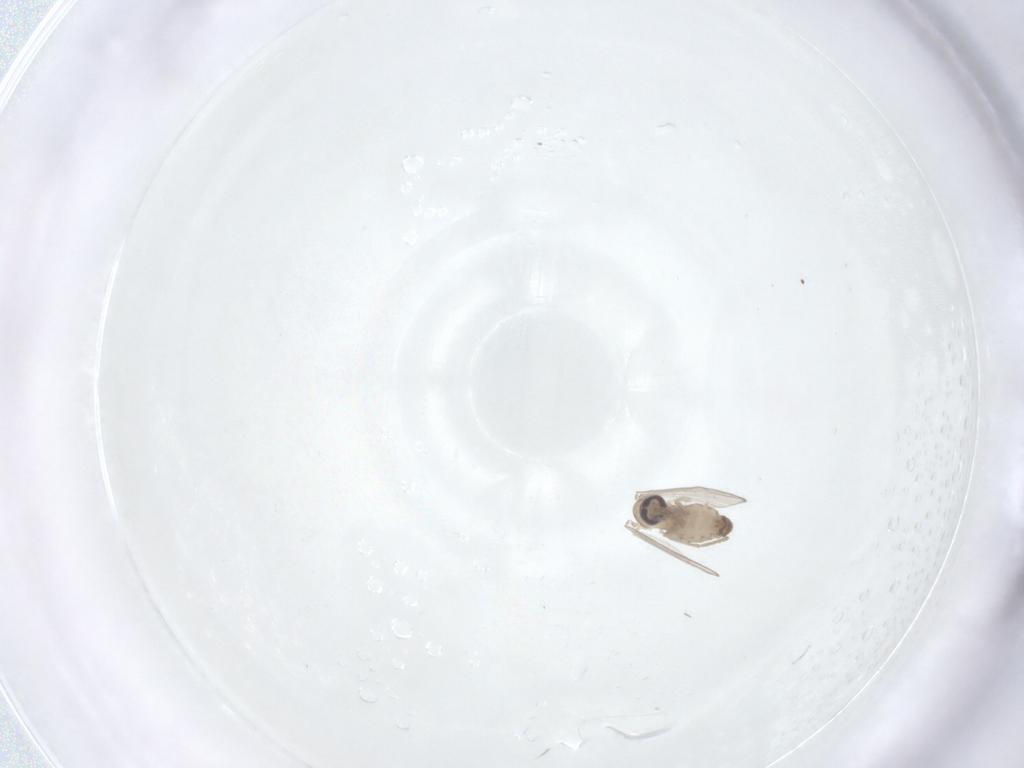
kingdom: Animalia
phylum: Arthropoda
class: Insecta
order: Diptera
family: Psychodidae
